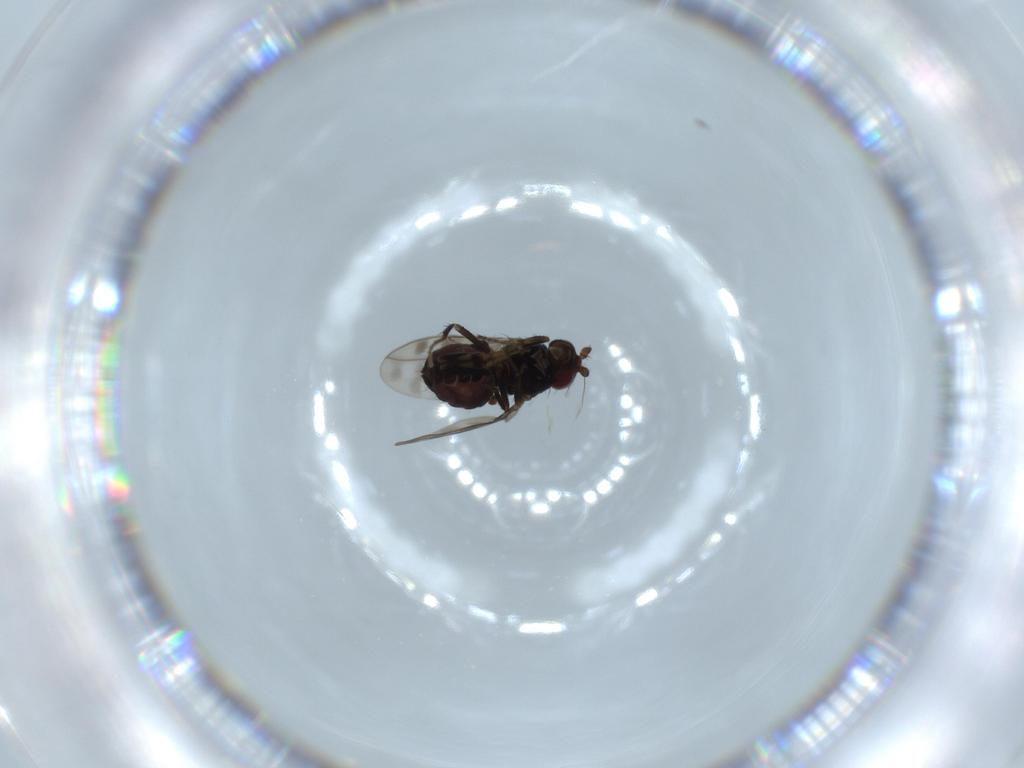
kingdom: Animalia
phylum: Arthropoda
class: Insecta
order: Diptera
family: Sphaeroceridae
